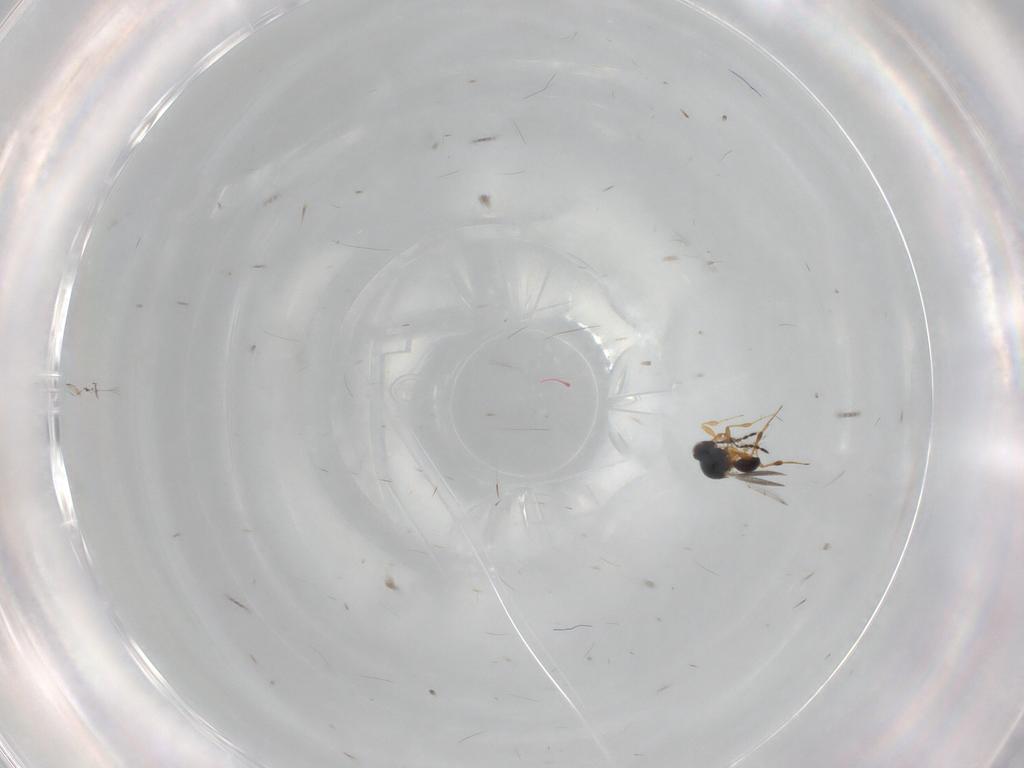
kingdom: Animalia
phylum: Arthropoda
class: Insecta
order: Hymenoptera
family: Platygastridae
